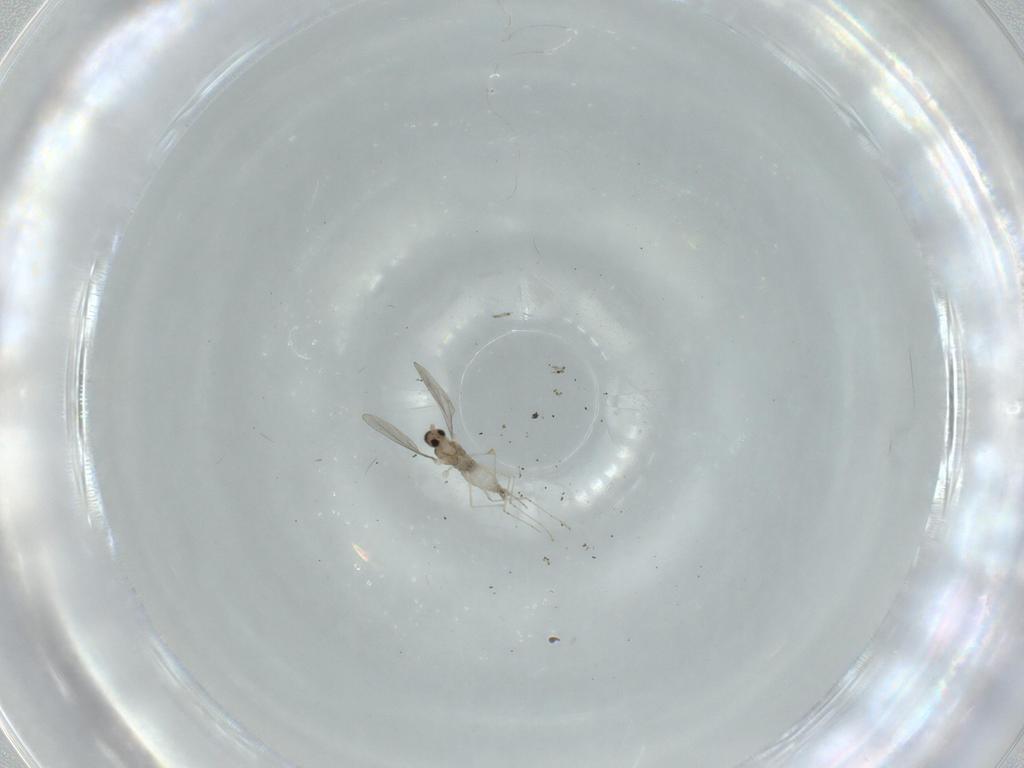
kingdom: Animalia
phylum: Arthropoda
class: Insecta
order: Diptera
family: Cecidomyiidae
